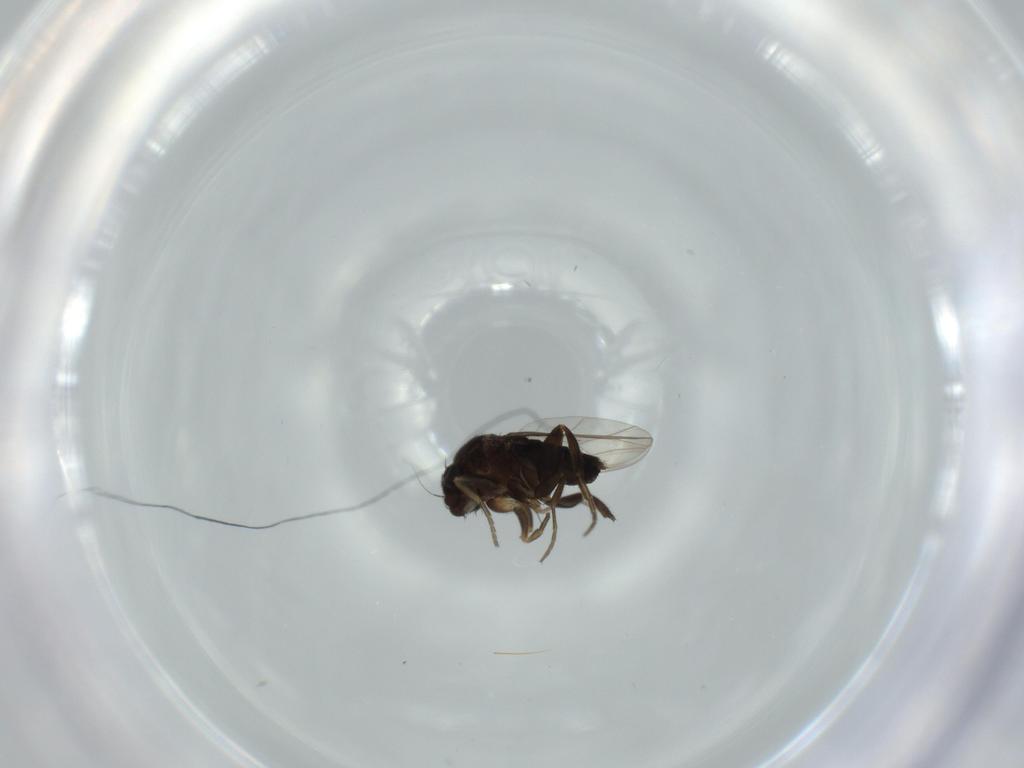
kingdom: Animalia
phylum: Arthropoda
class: Insecta
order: Diptera
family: Phoridae
